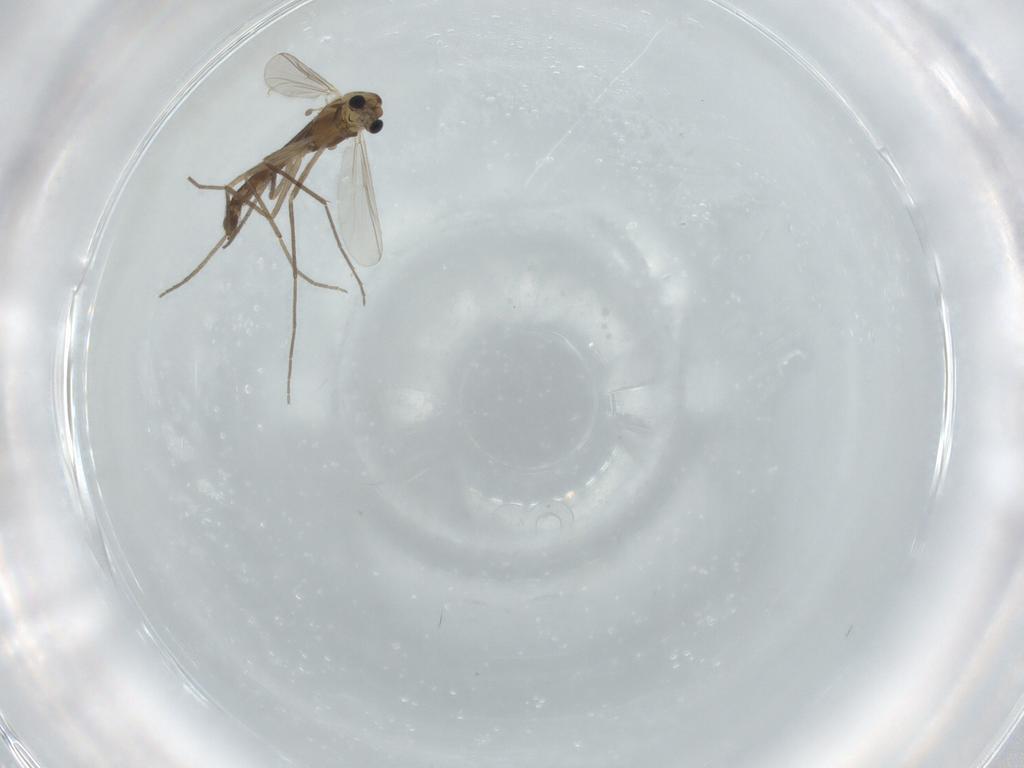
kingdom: Animalia
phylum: Arthropoda
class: Insecta
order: Diptera
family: Chironomidae
